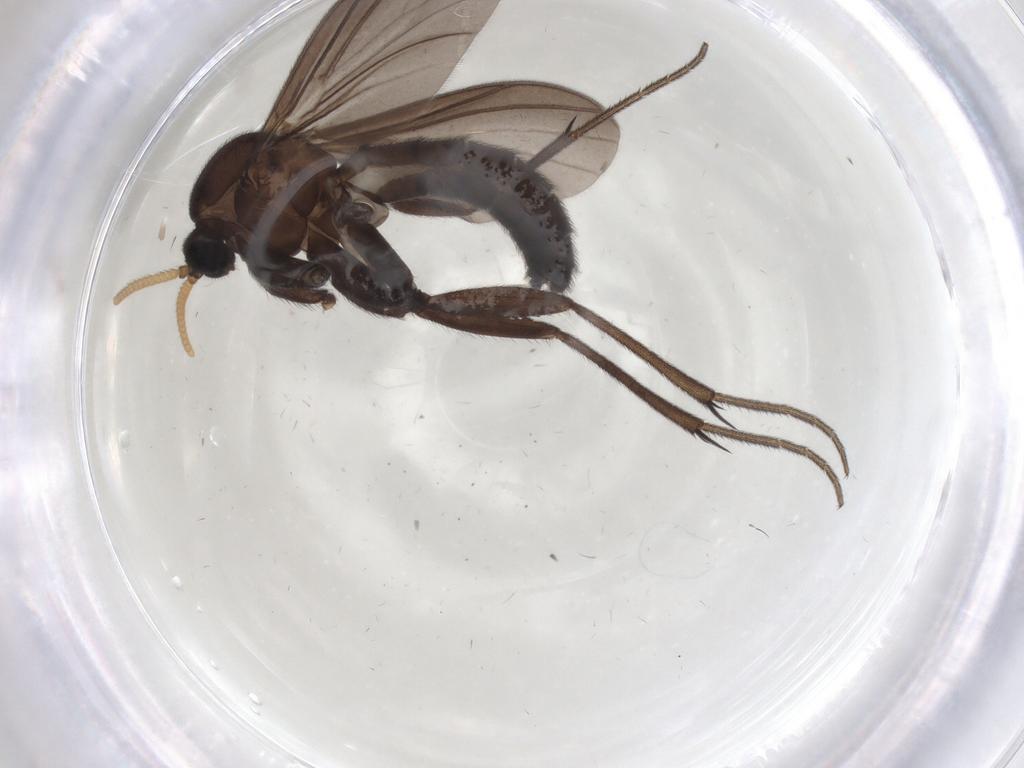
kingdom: Animalia
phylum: Arthropoda
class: Insecta
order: Diptera
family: Mycetophilidae
